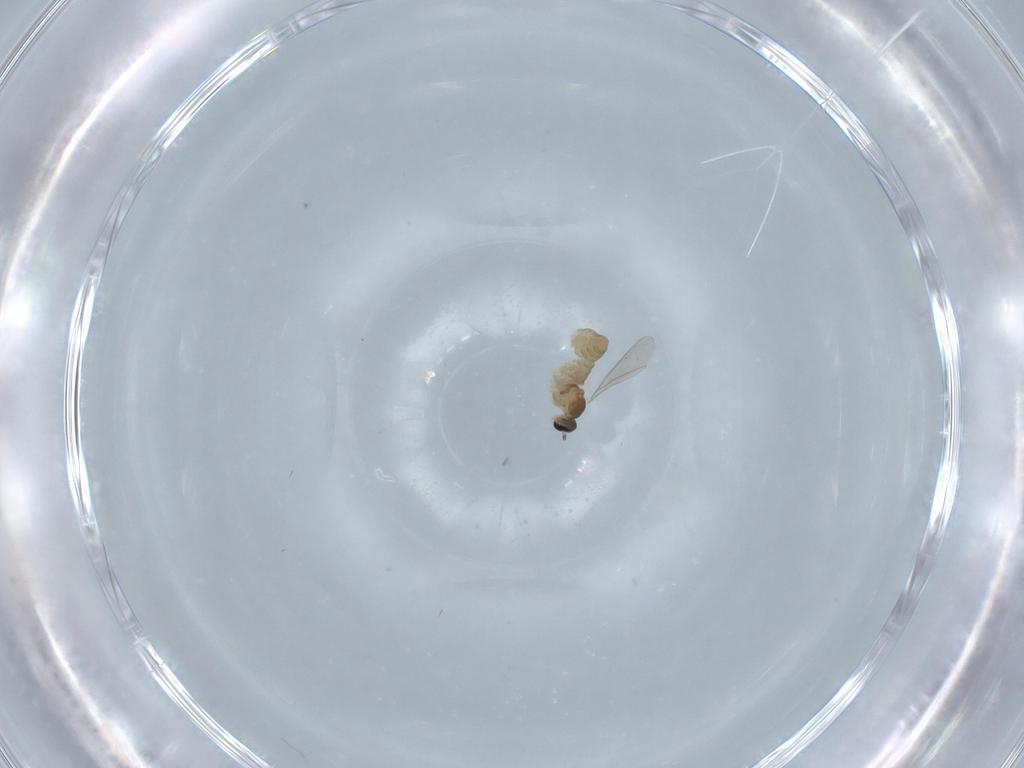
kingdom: Animalia
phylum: Arthropoda
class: Insecta
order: Diptera
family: Cecidomyiidae
